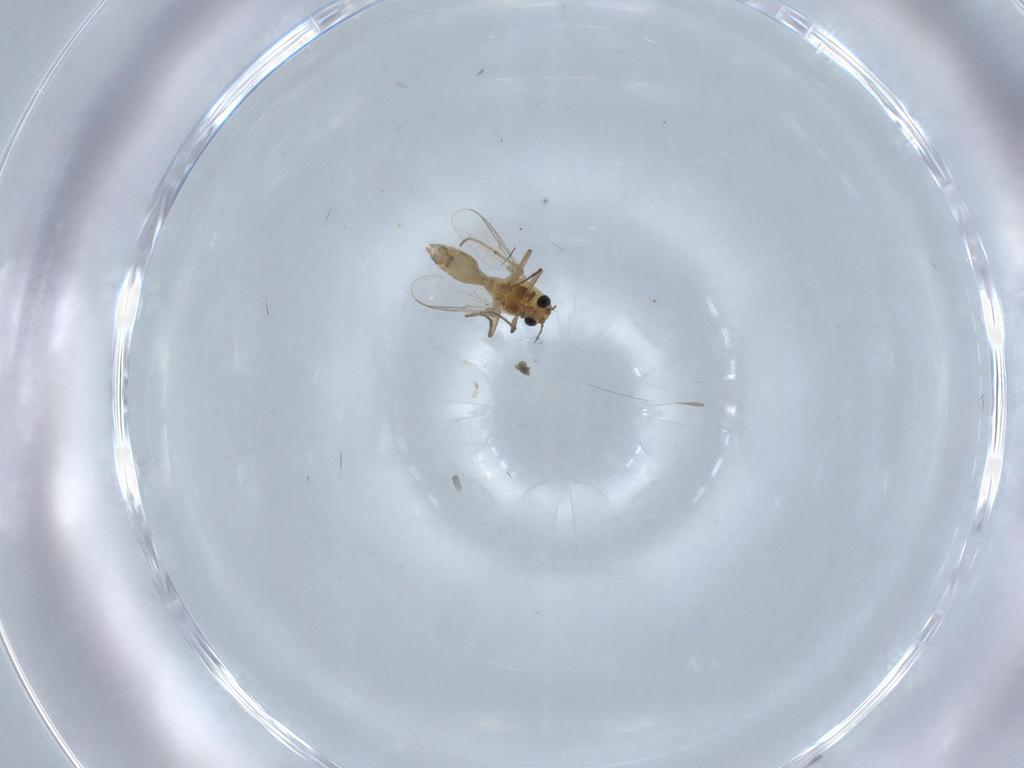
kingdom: Animalia
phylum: Arthropoda
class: Insecta
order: Diptera
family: Chironomidae
